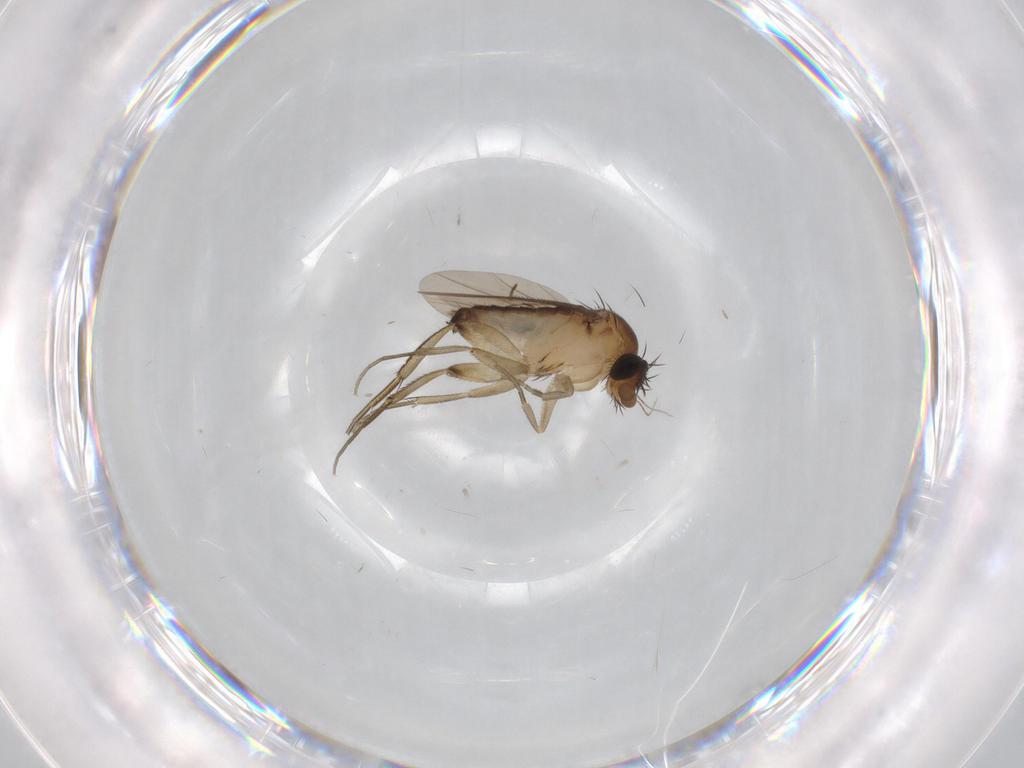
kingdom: Animalia
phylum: Arthropoda
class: Insecta
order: Diptera
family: Phoridae
